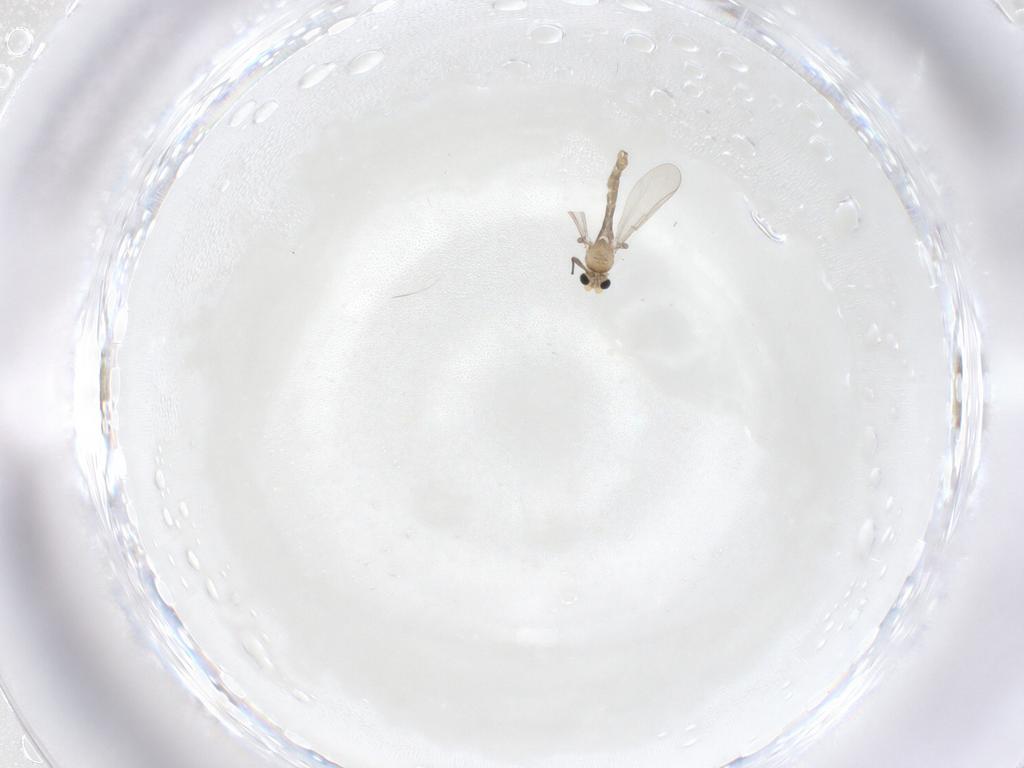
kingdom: Animalia
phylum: Arthropoda
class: Insecta
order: Diptera
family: Chironomidae
